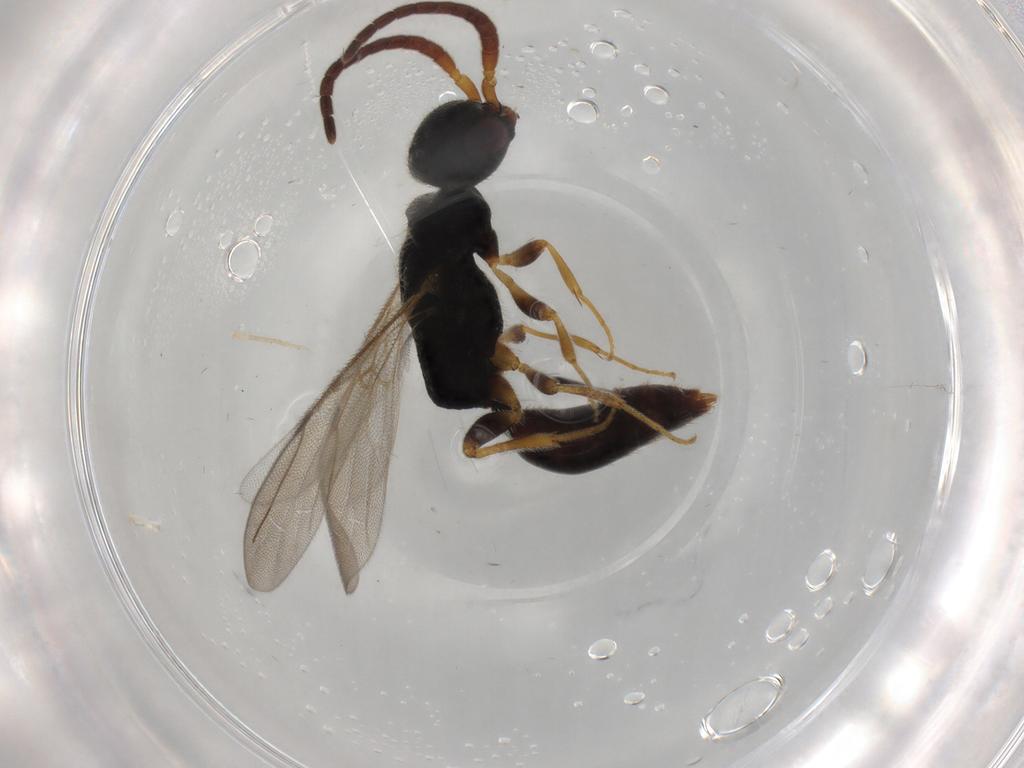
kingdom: Animalia
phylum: Arthropoda
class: Insecta
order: Hymenoptera
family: Bethylidae
